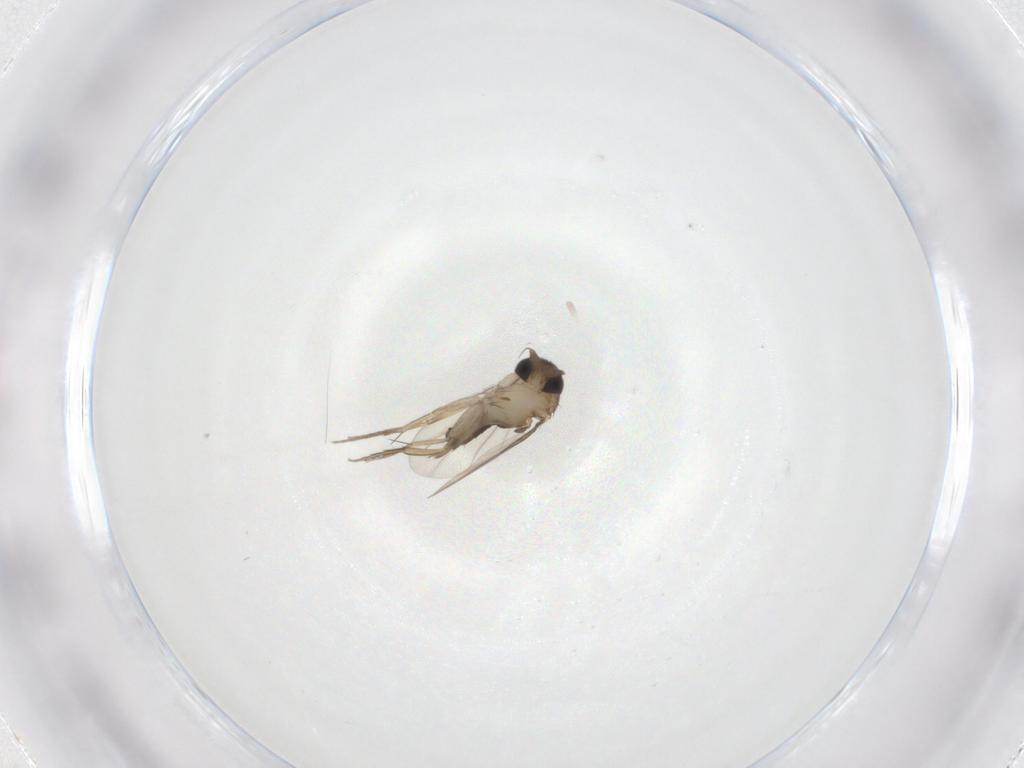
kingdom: Animalia
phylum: Arthropoda
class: Insecta
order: Diptera
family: Phoridae
